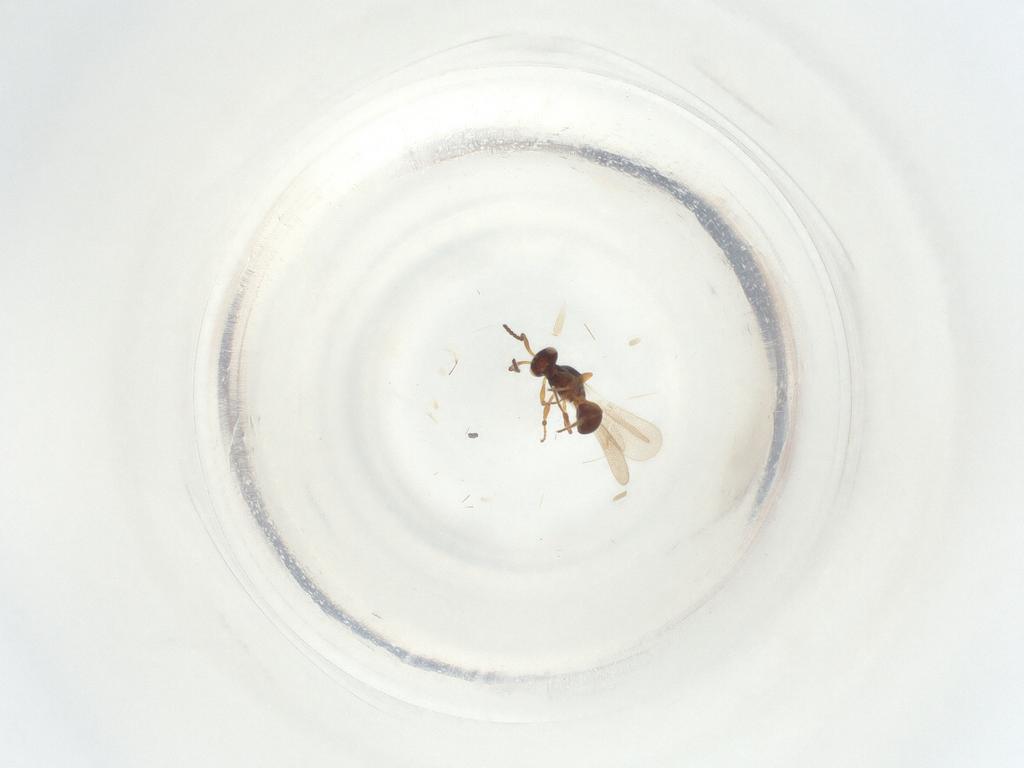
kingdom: Animalia
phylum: Arthropoda
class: Insecta
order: Hymenoptera
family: Platygastridae
